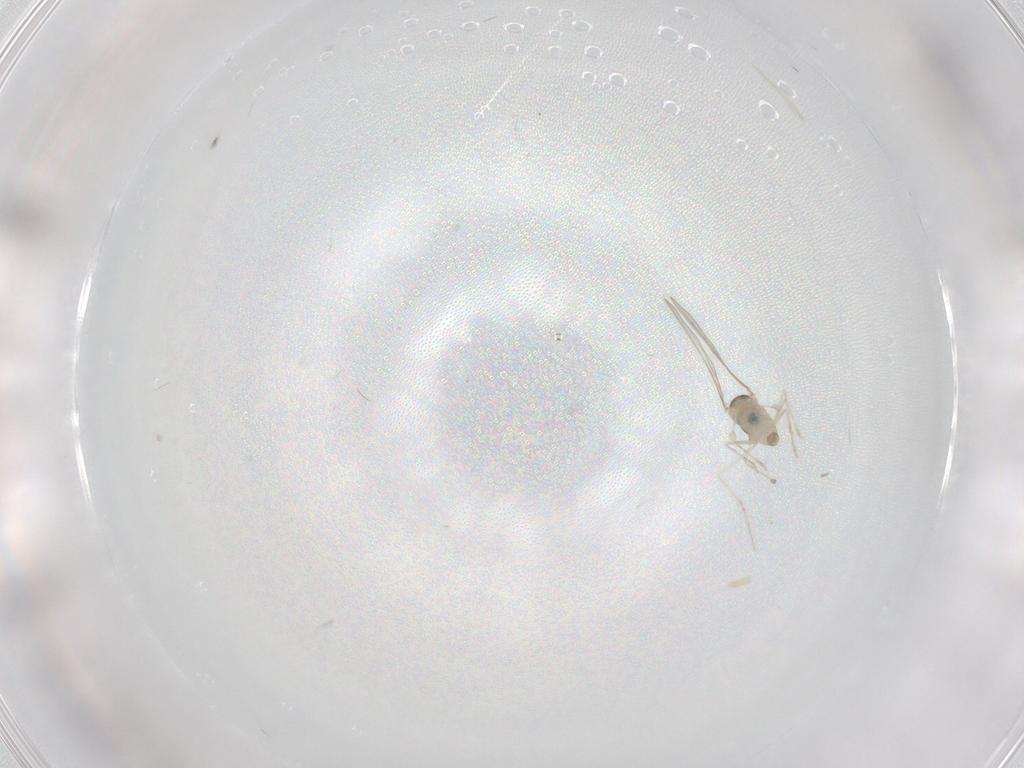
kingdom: Animalia
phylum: Arthropoda
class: Insecta
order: Diptera
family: Cecidomyiidae
